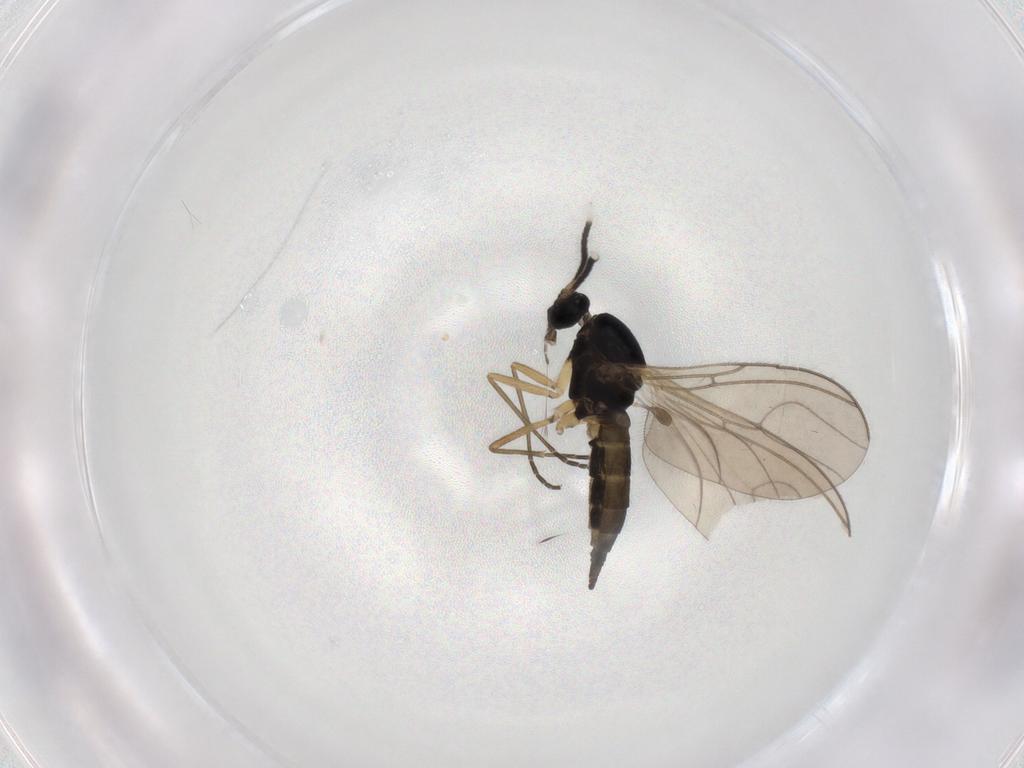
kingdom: Animalia
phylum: Arthropoda
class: Insecta
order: Diptera
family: Sciaridae
